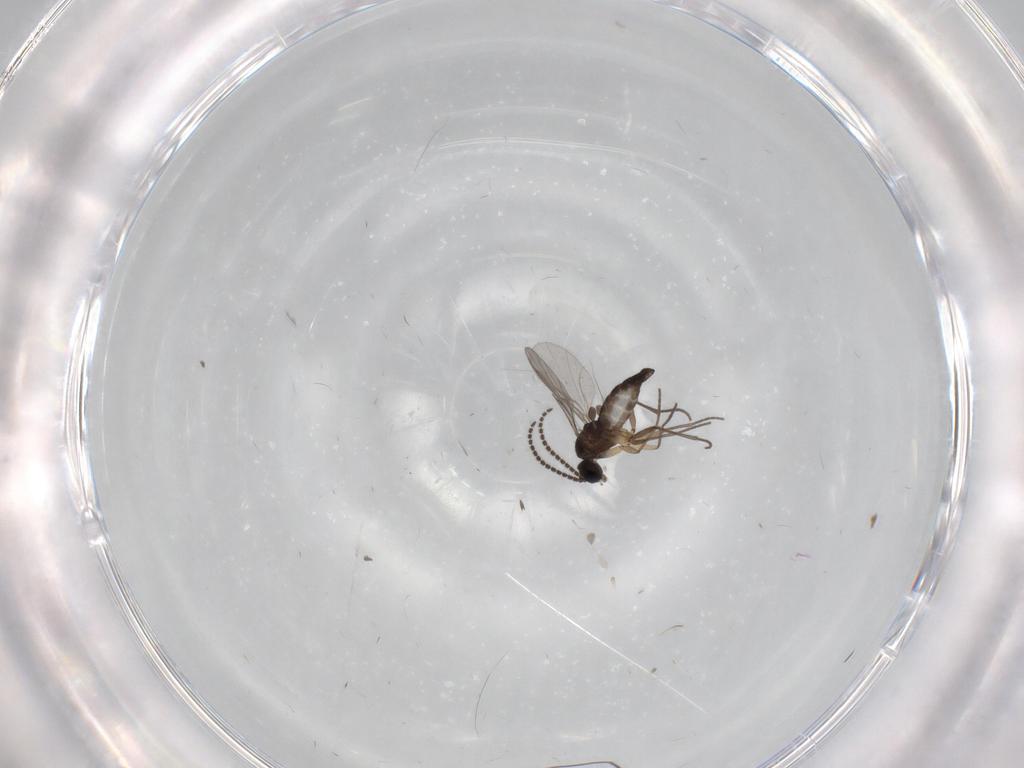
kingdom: Animalia
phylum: Arthropoda
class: Insecta
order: Diptera
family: Sciaridae
